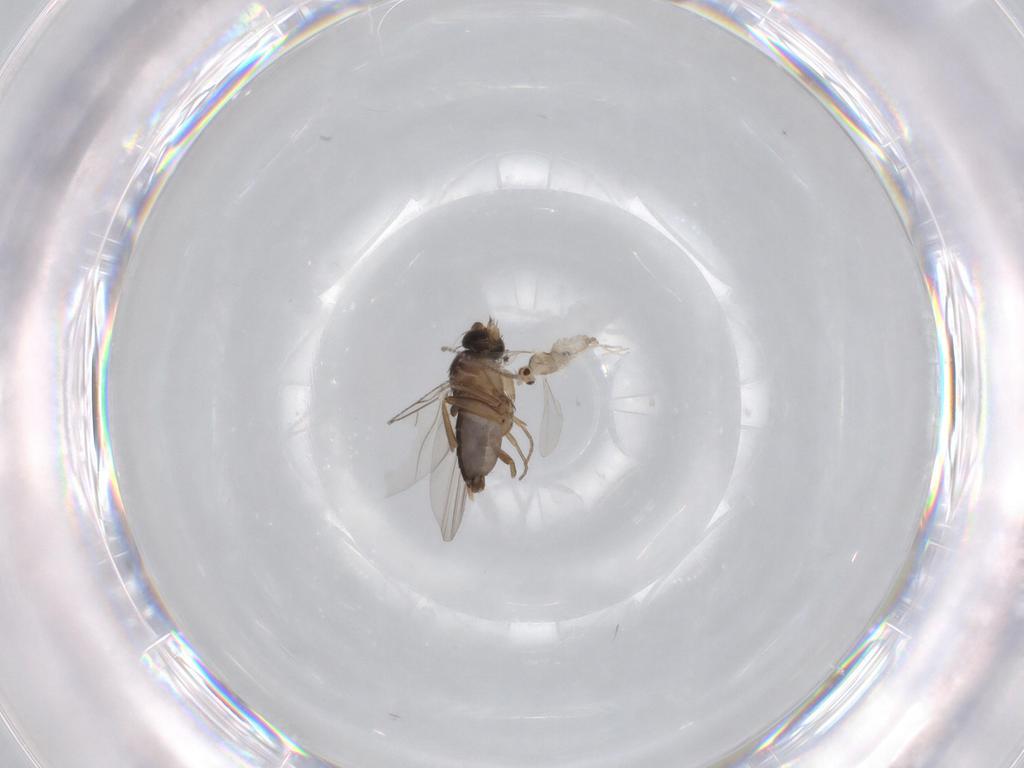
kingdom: Animalia
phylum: Arthropoda
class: Insecta
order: Diptera
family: Phoridae
